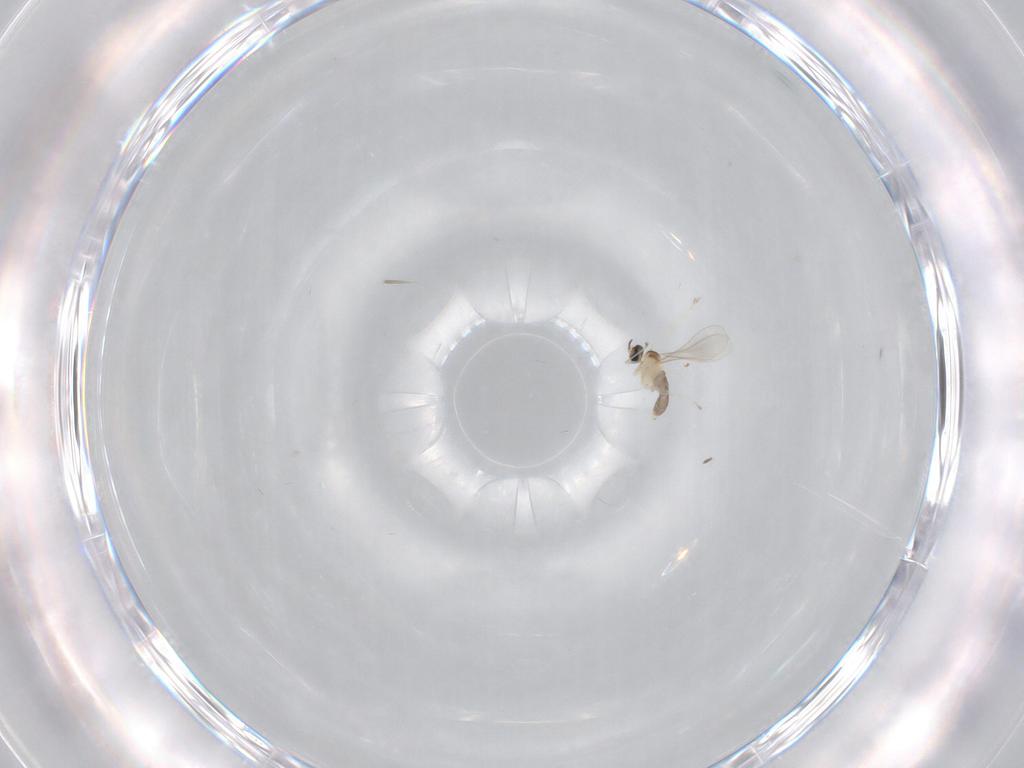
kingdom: Animalia
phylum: Arthropoda
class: Insecta
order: Diptera
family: Cecidomyiidae
